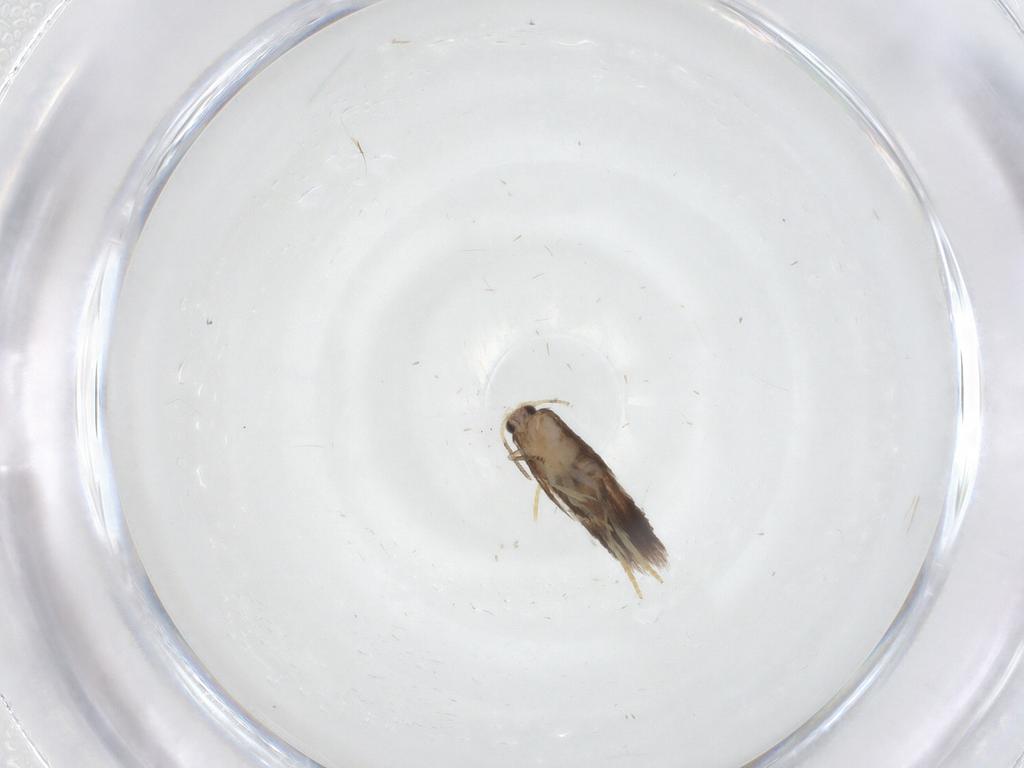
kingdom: Animalia
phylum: Arthropoda
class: Insecta
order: Lepidoptera
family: Nepticulidae
